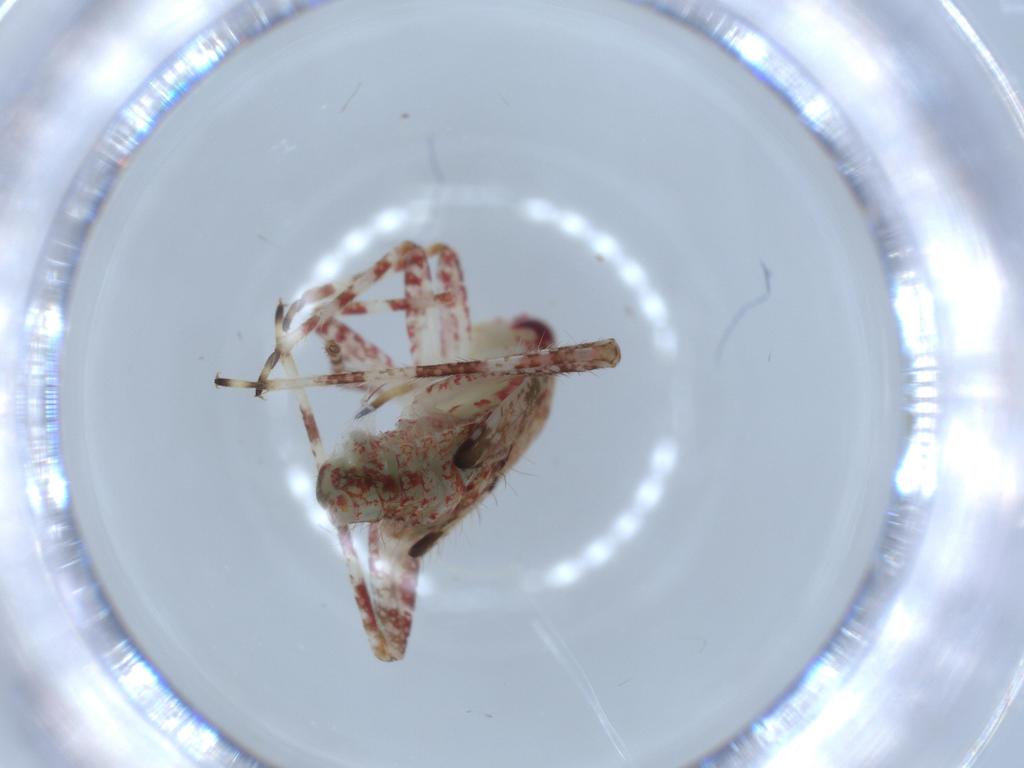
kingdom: Animalia
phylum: Arthropoda
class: Insecta
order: Hemiptera
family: Miridae
